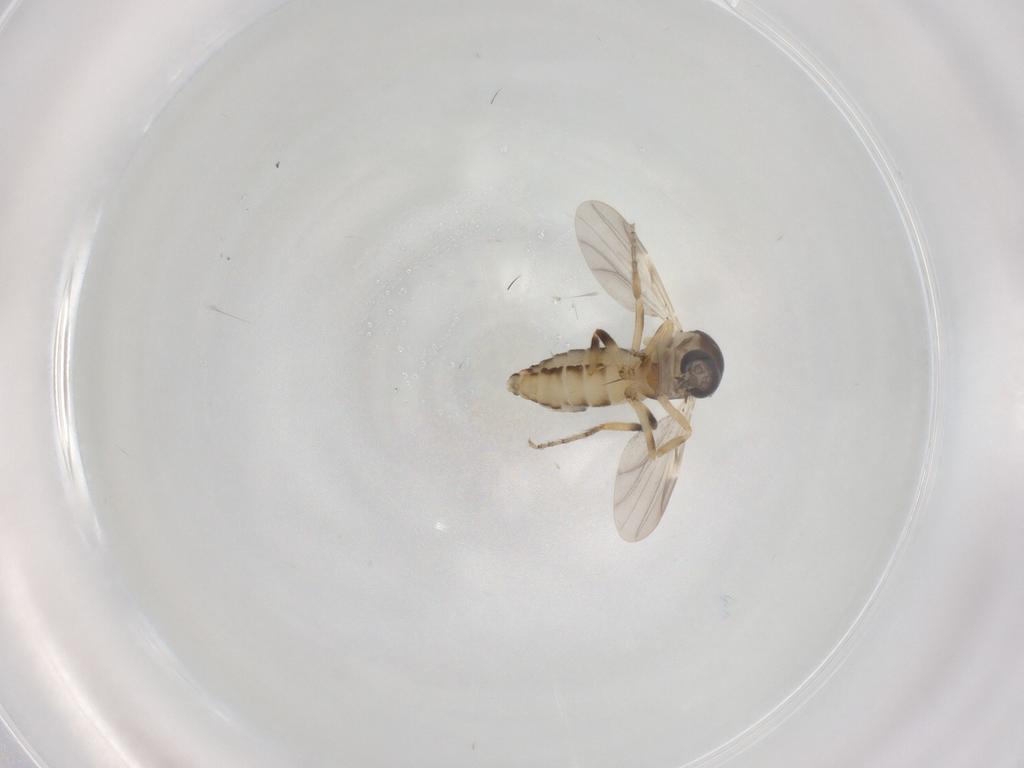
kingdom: Animalia
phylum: Arthropoda
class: Insecta
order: Diptera
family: Ceratopogonidae
